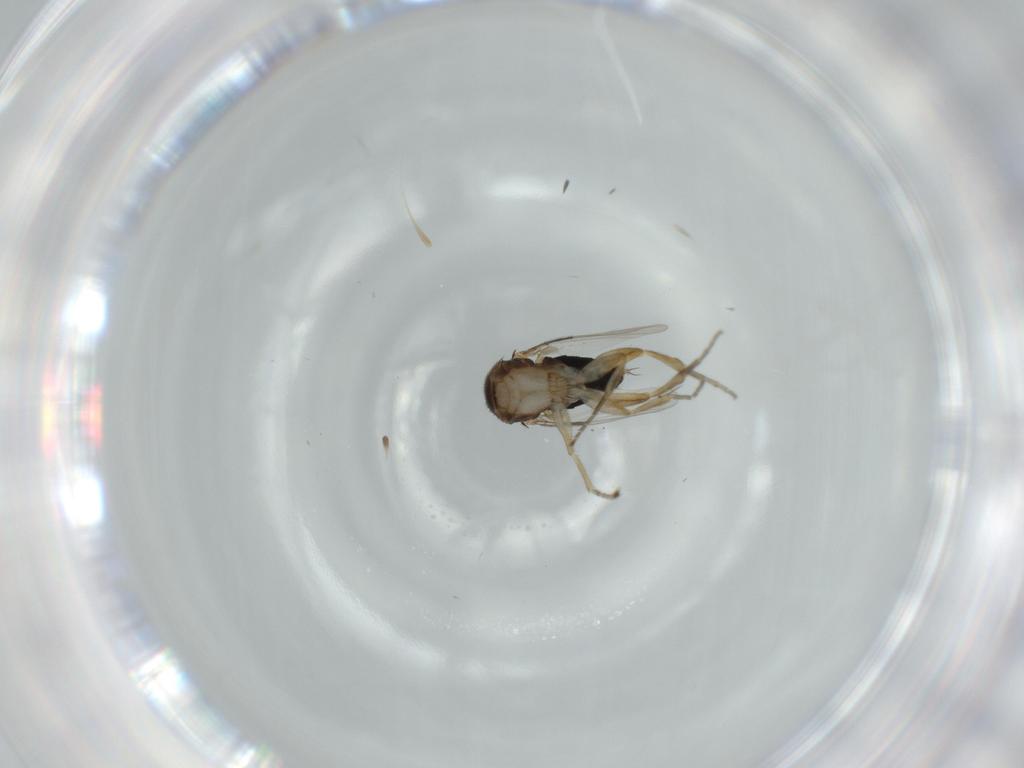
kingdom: Animalia
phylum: Arthropoda
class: Insecta
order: Diptera
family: Phoridae
